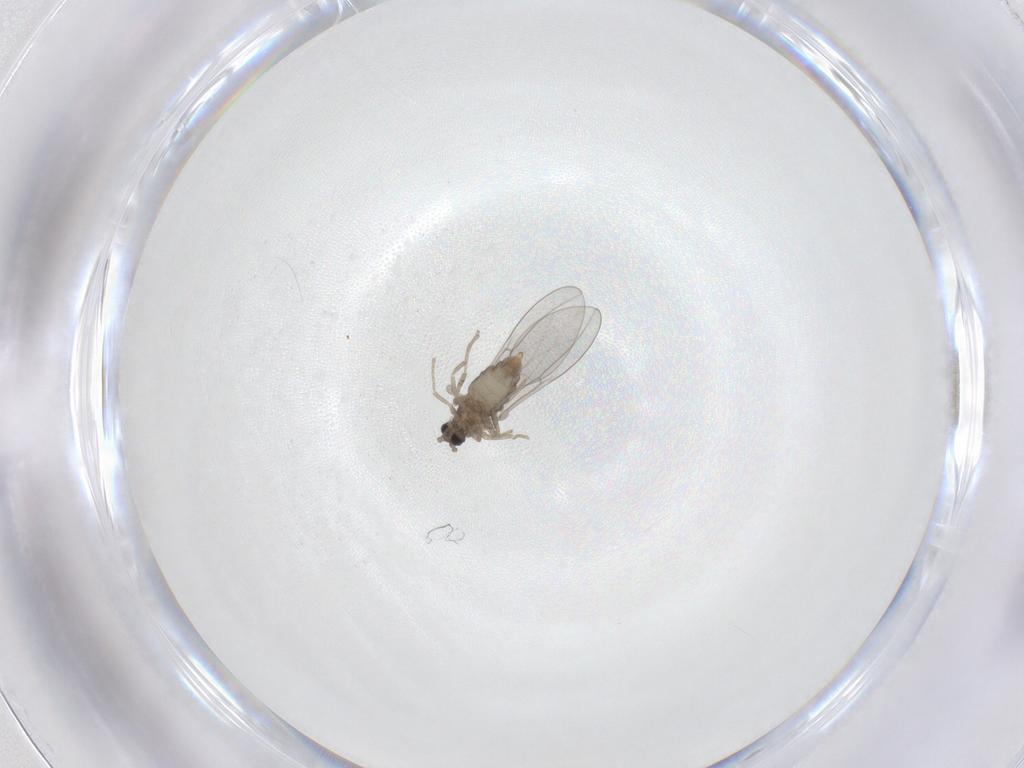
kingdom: Animalia
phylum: Arthropoda
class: Insecta
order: Diptera
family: Cecidomyiidae
